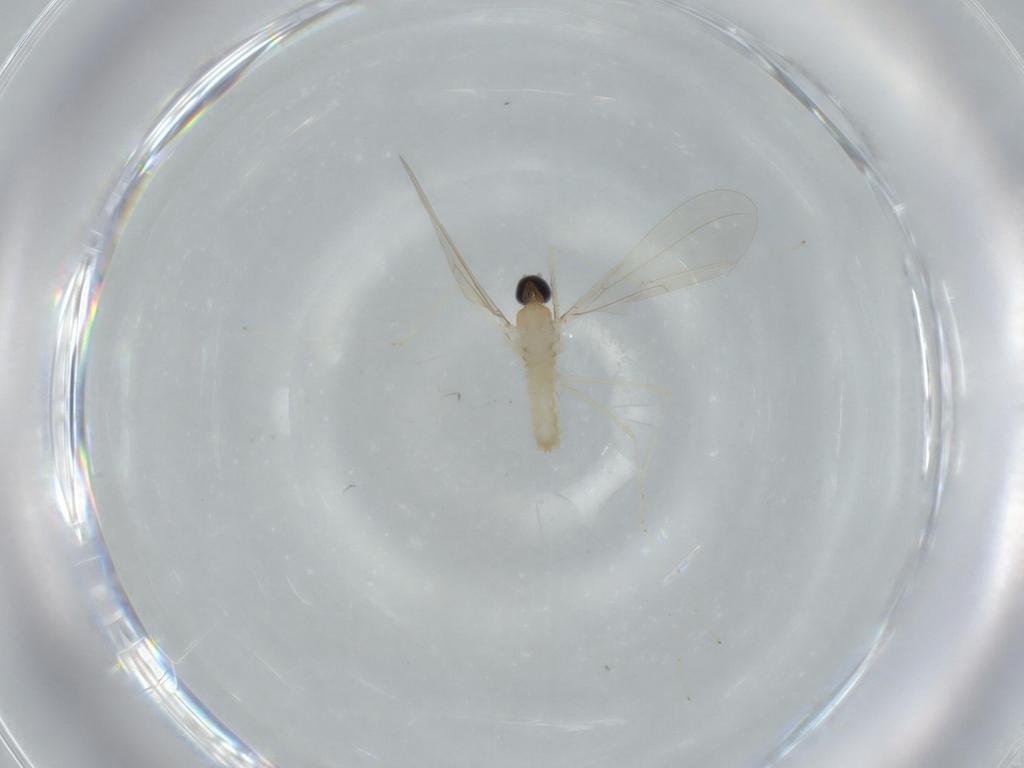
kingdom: Animalia
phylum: Arthropoda
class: Insecta
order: Diptera
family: Cecidomyiidae
